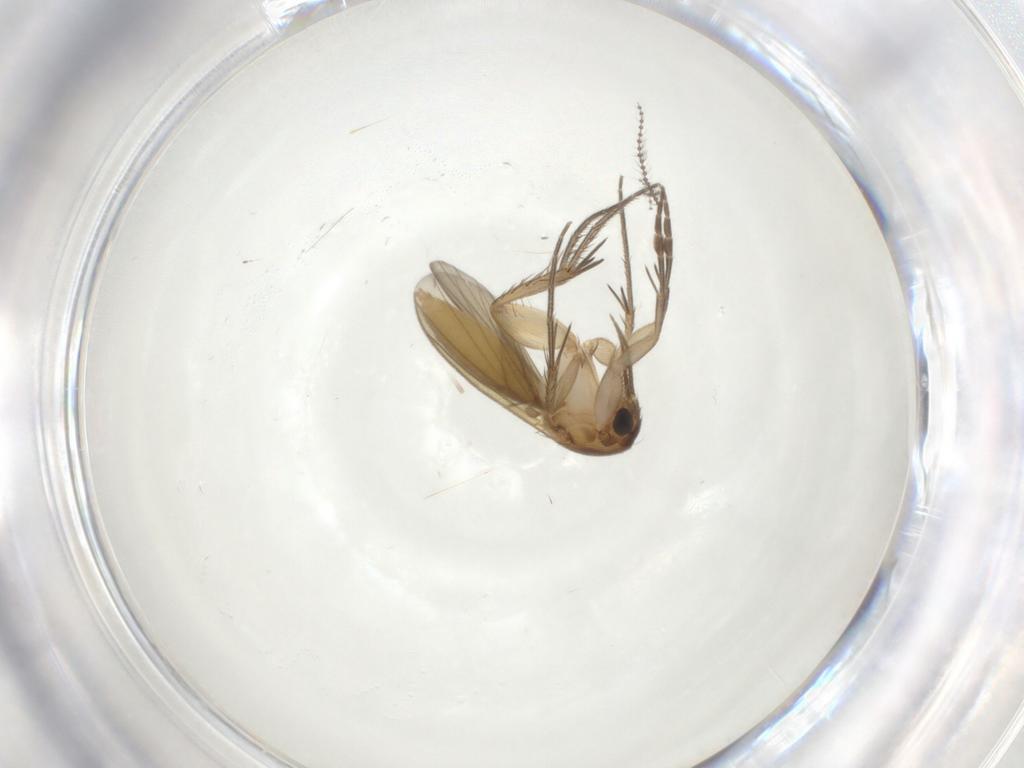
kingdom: Animalia
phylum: Arthropoda
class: Insecta
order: Diptera
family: Mycetophilidae
